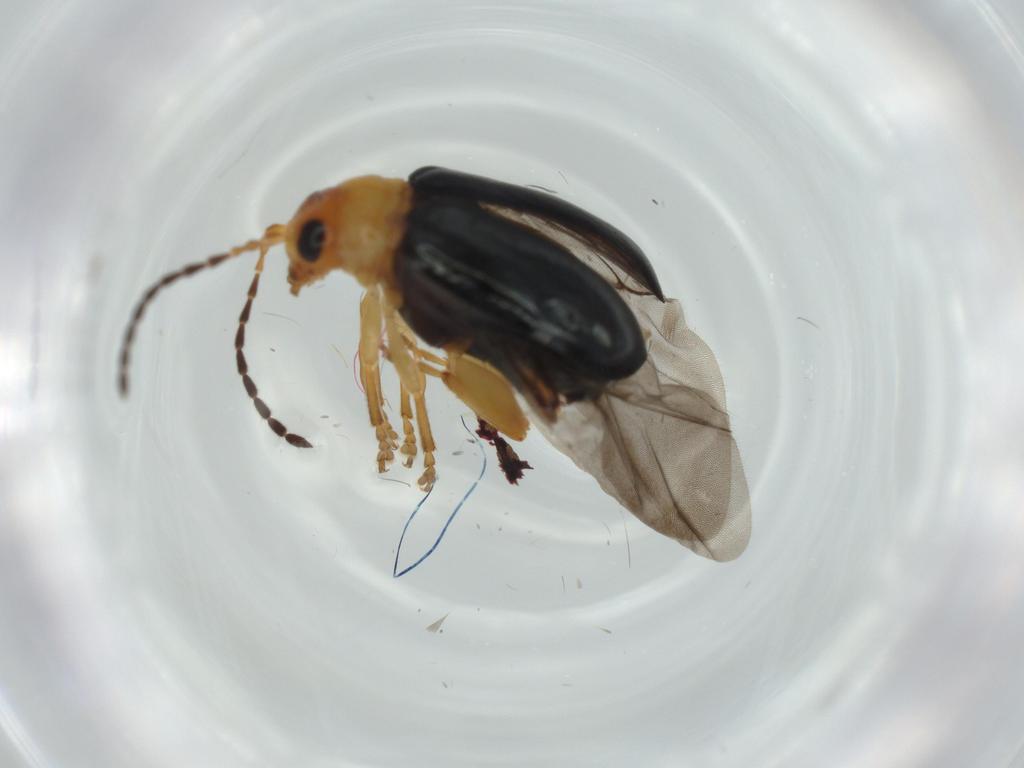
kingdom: Animalia
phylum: Arthropoda
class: Insecta
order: Coleoptera
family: Chrysomelidae
